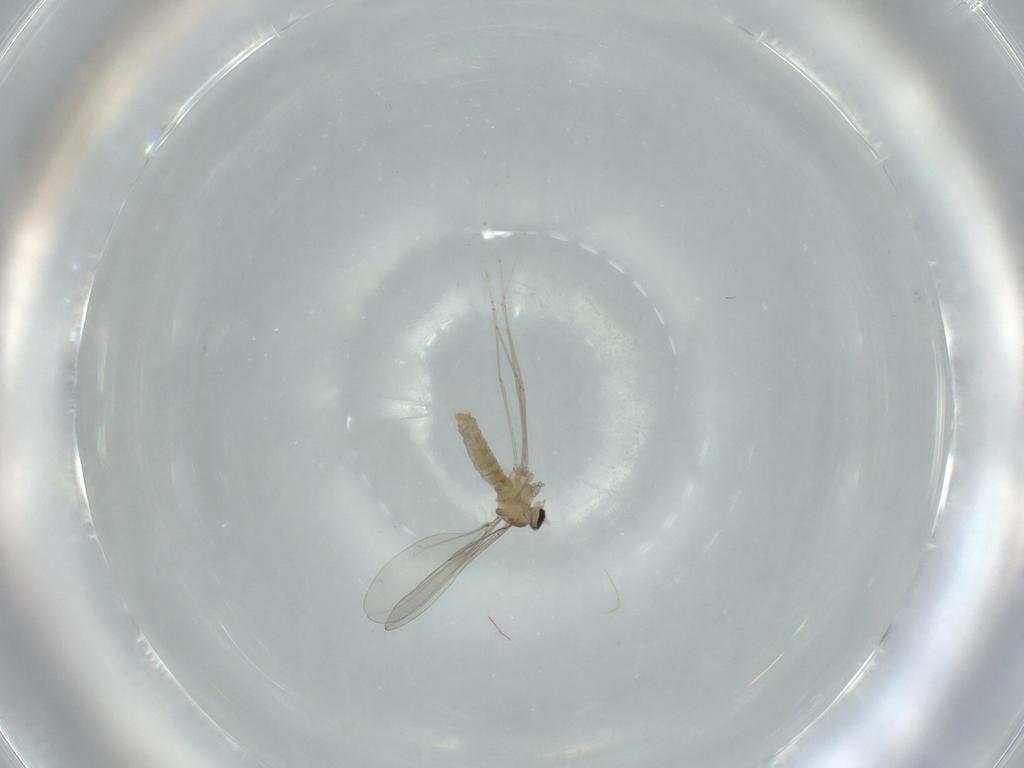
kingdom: Animalia
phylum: Arthropoda
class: Insecta
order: Diptera
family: Cecidomyiidae
